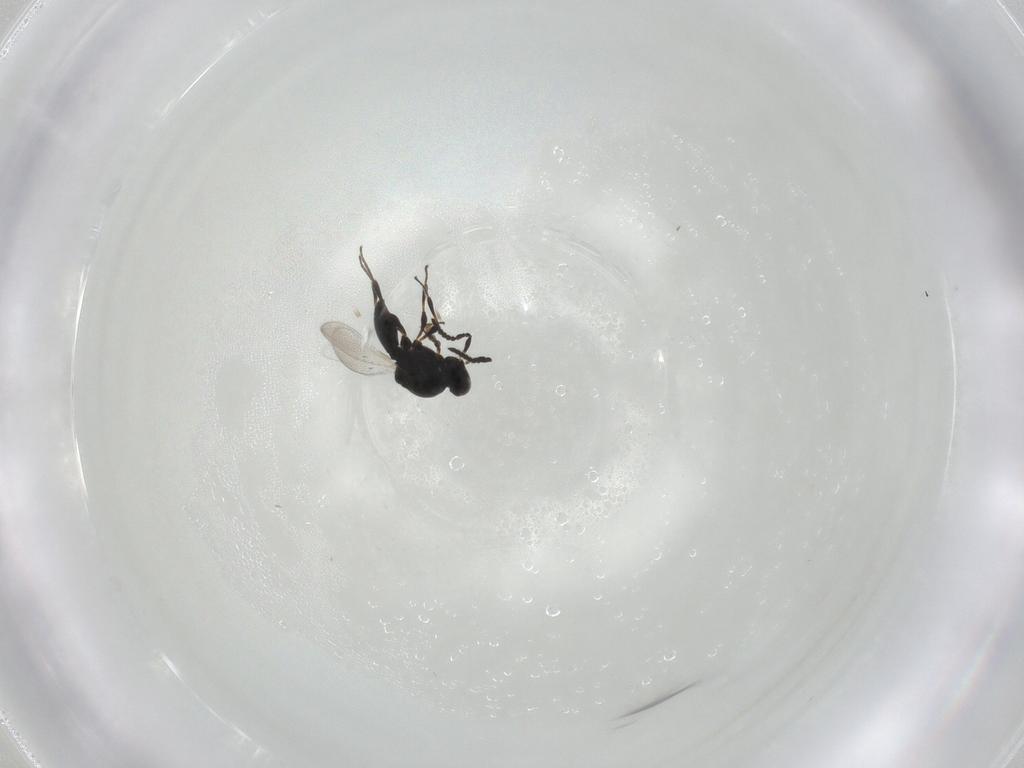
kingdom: Animalia
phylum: Arthropoda
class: Insecta
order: Hymenoptera
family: Platygastridae
